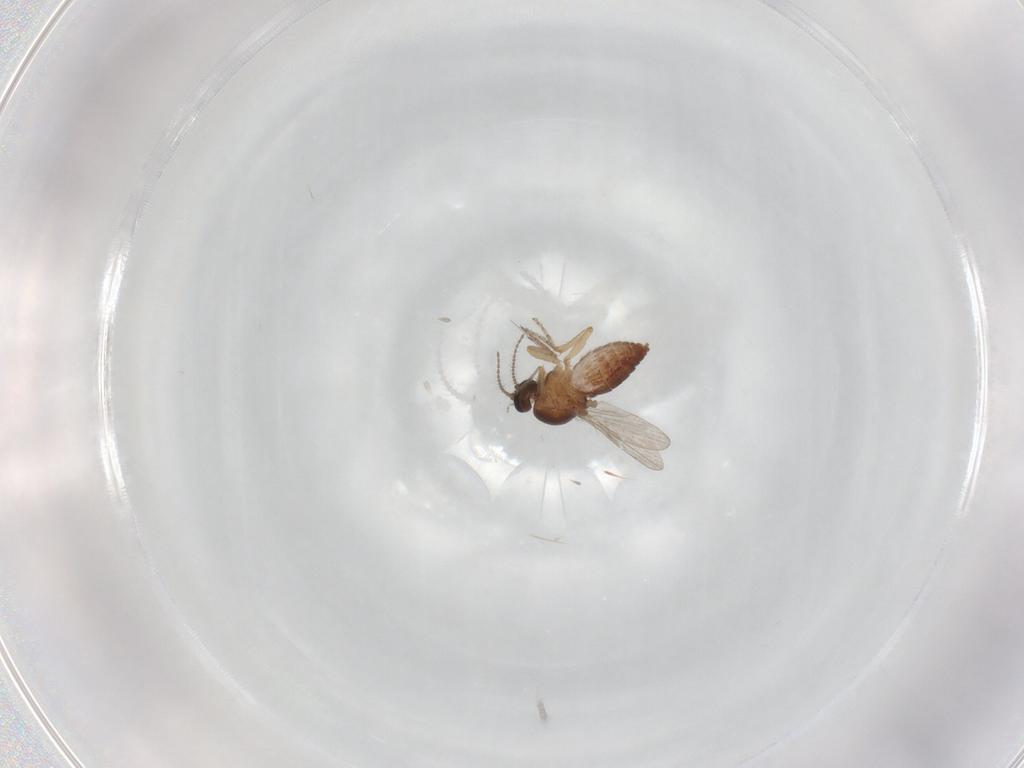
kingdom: Animalia
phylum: Arthropoda
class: Insecta
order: Diptera
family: Ceratopogonidae
